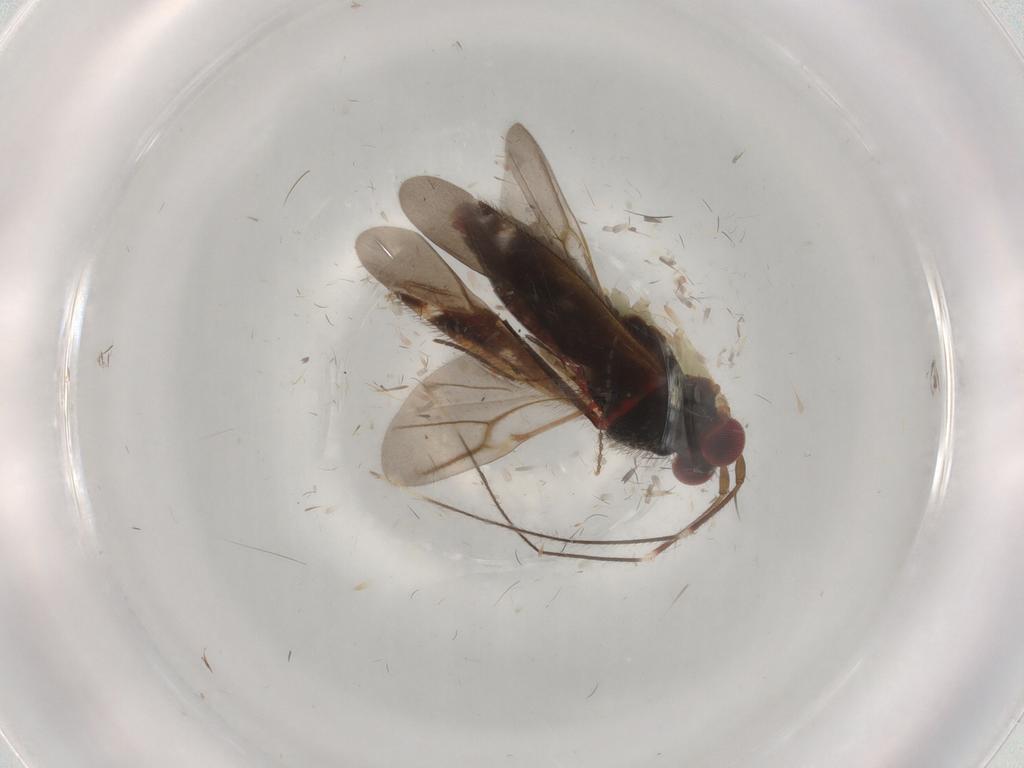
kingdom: Animalia
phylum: Arthropoda
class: Insecta
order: Hemiptera
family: Miridae
